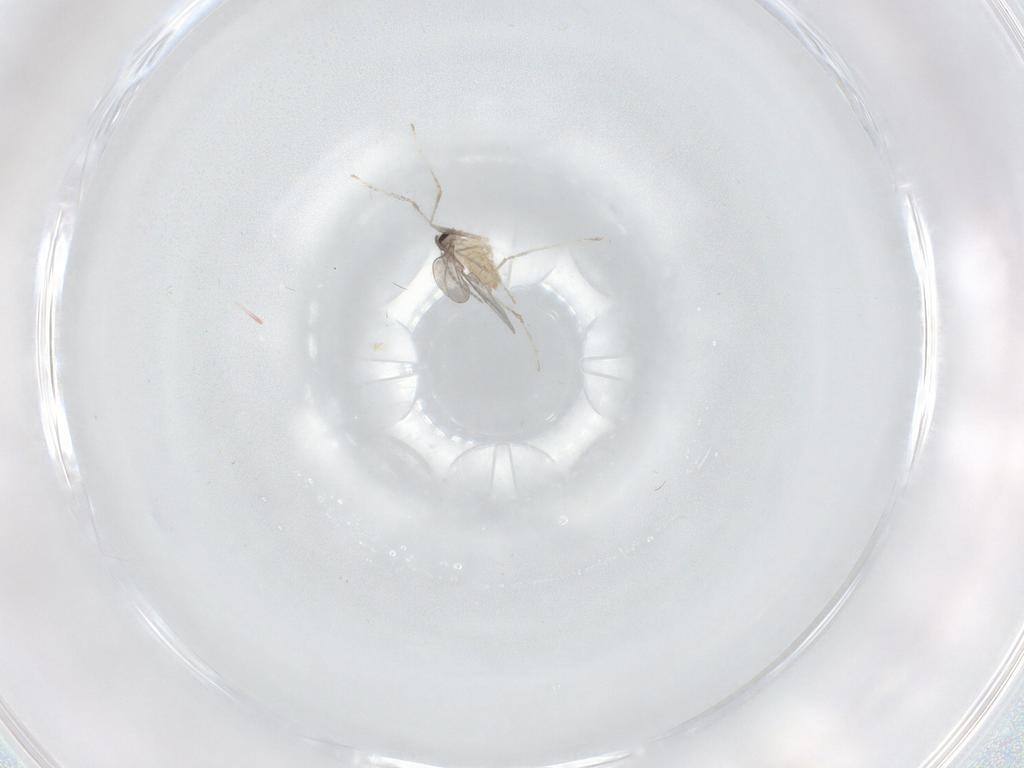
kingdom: Animalia
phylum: Arthropoda
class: Insecta
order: Diptera
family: Cecidomyiidae
